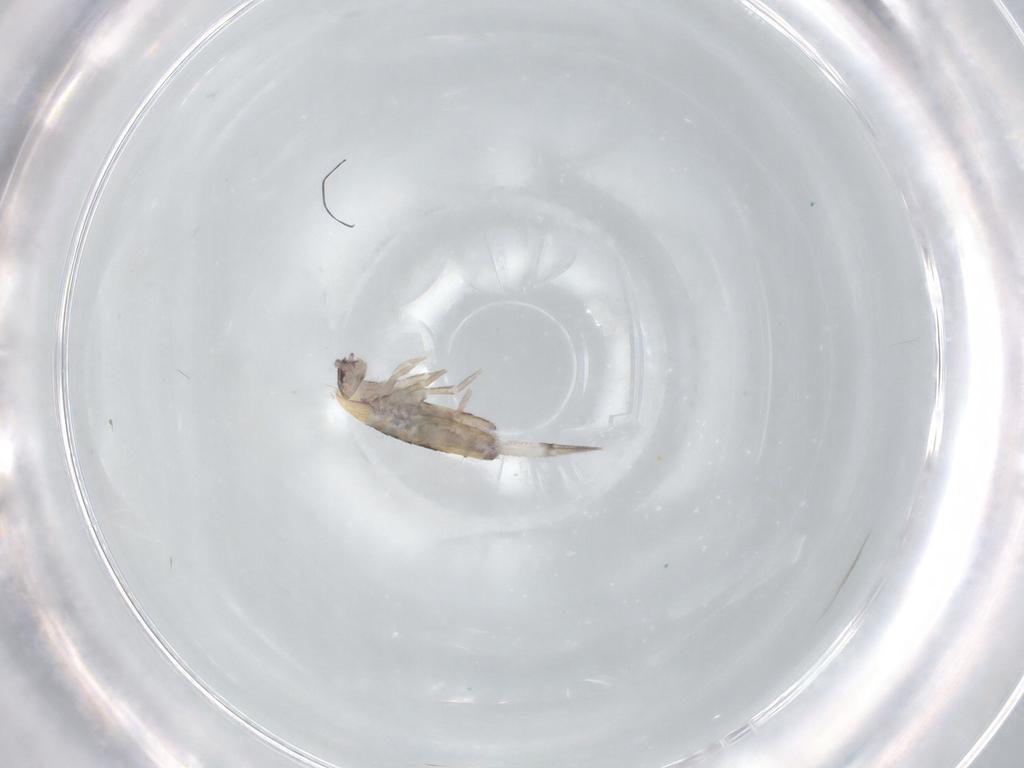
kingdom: Animalia
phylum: Arthropoda
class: Collembola
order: Entomobryomorpha
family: Entomobryidae
